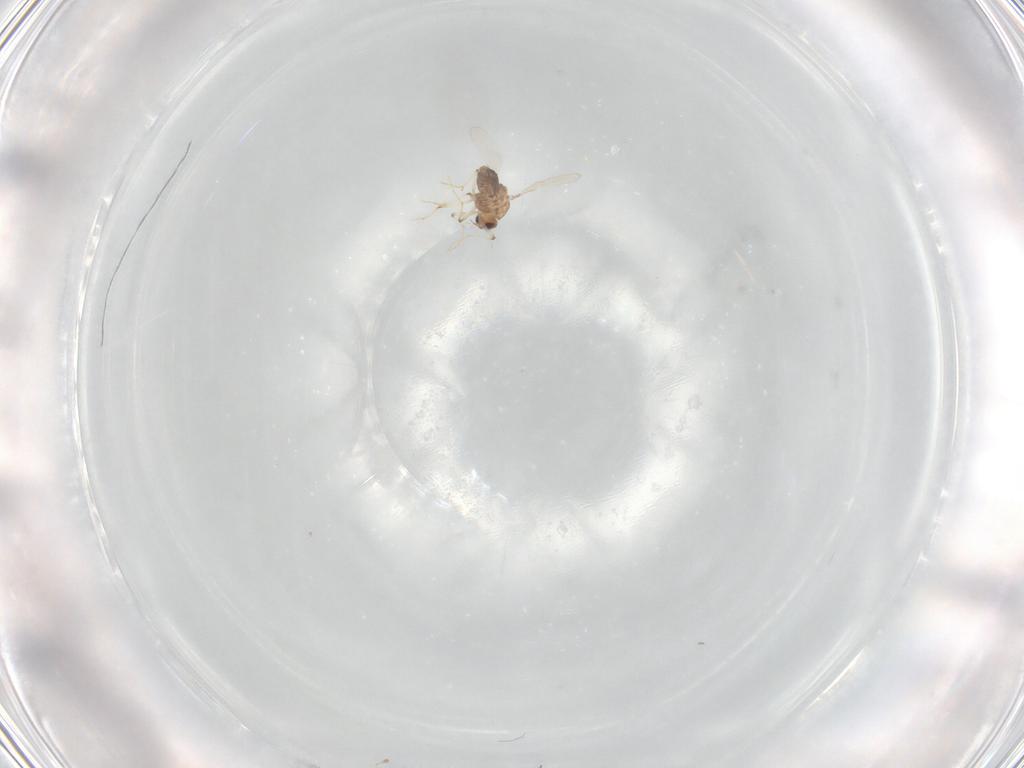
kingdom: Animalia
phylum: Arthropoda
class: Insecta
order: Diptera
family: Chironomidae
